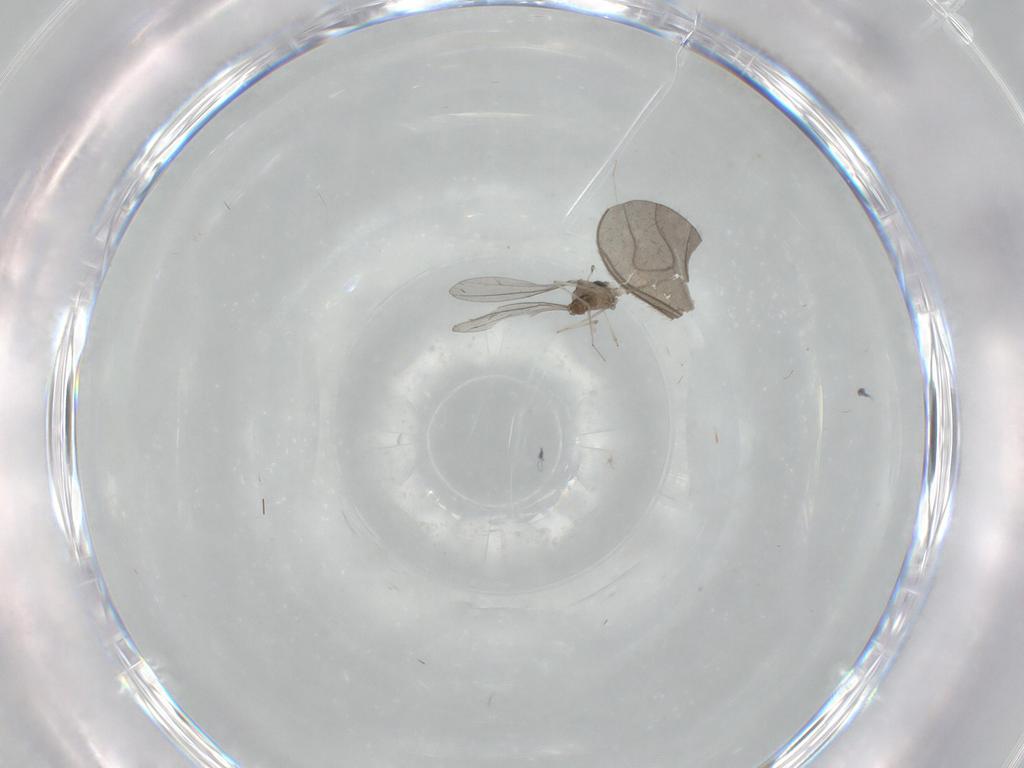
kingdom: Animalia
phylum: Arthropoda
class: Insecta
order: Diptera
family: Cecidomyiidae
